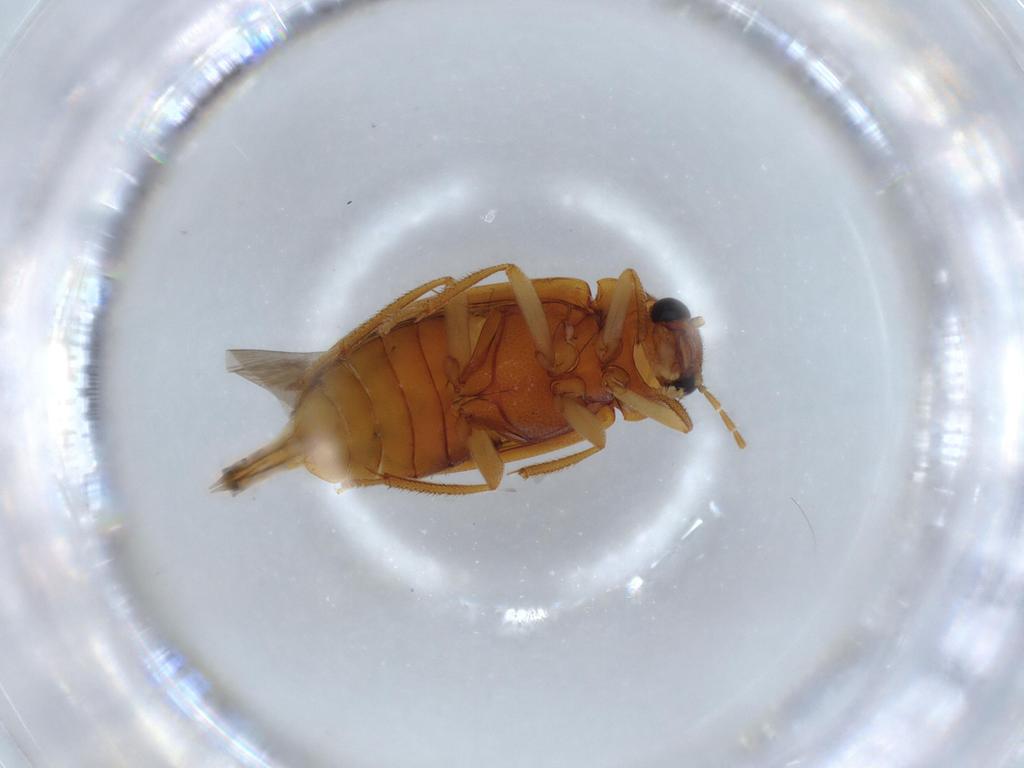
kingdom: Animalia
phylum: Arthropoda
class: Insecta
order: Coleoptera
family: Ptilodactylidae
